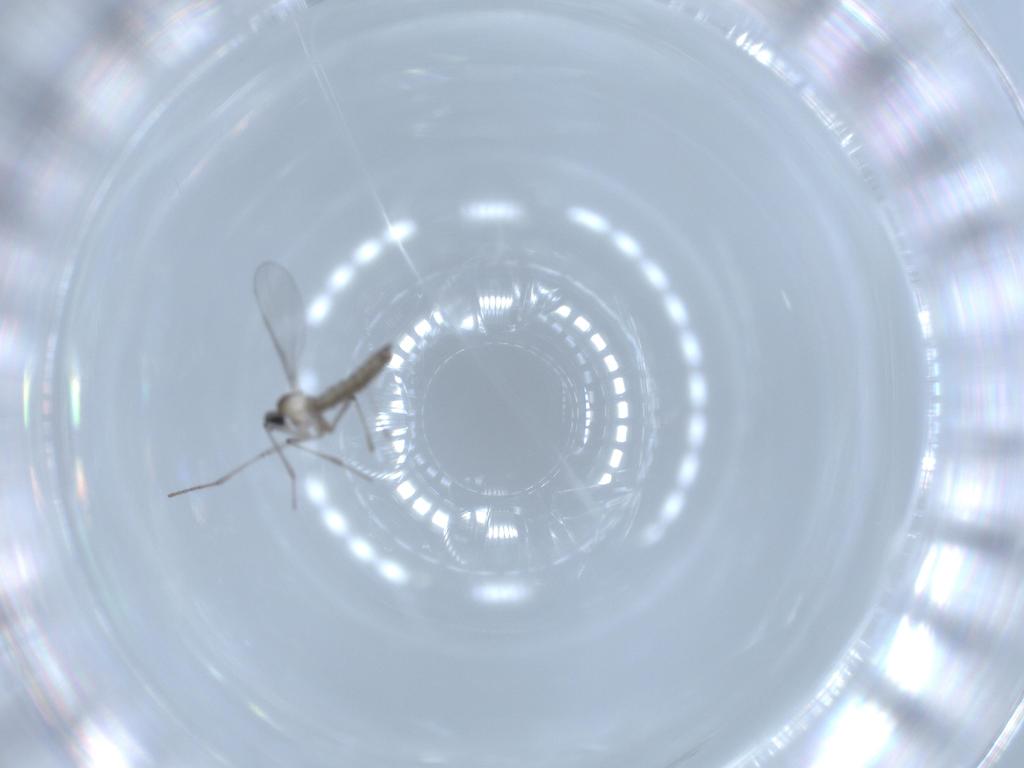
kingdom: Animalia
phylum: Arthropoda
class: Insecta
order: Diptera
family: Cecidomyiidae
